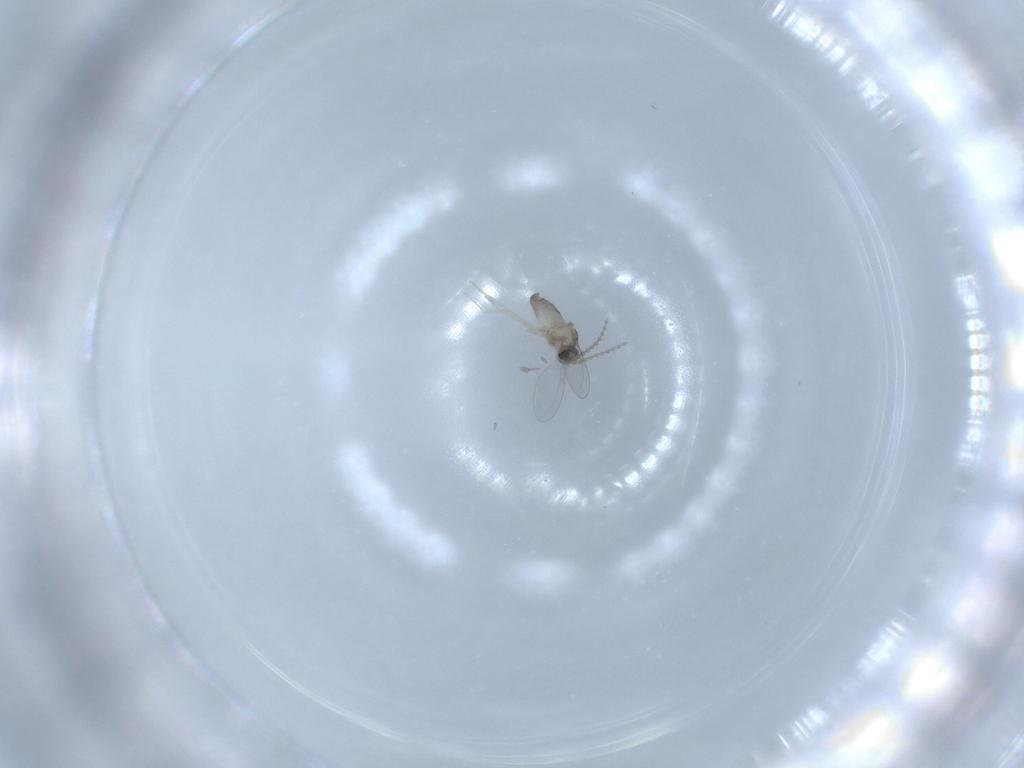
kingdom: Animalia
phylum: Arthropoda
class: Insecta
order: Diptera
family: Cecidomyiidae
